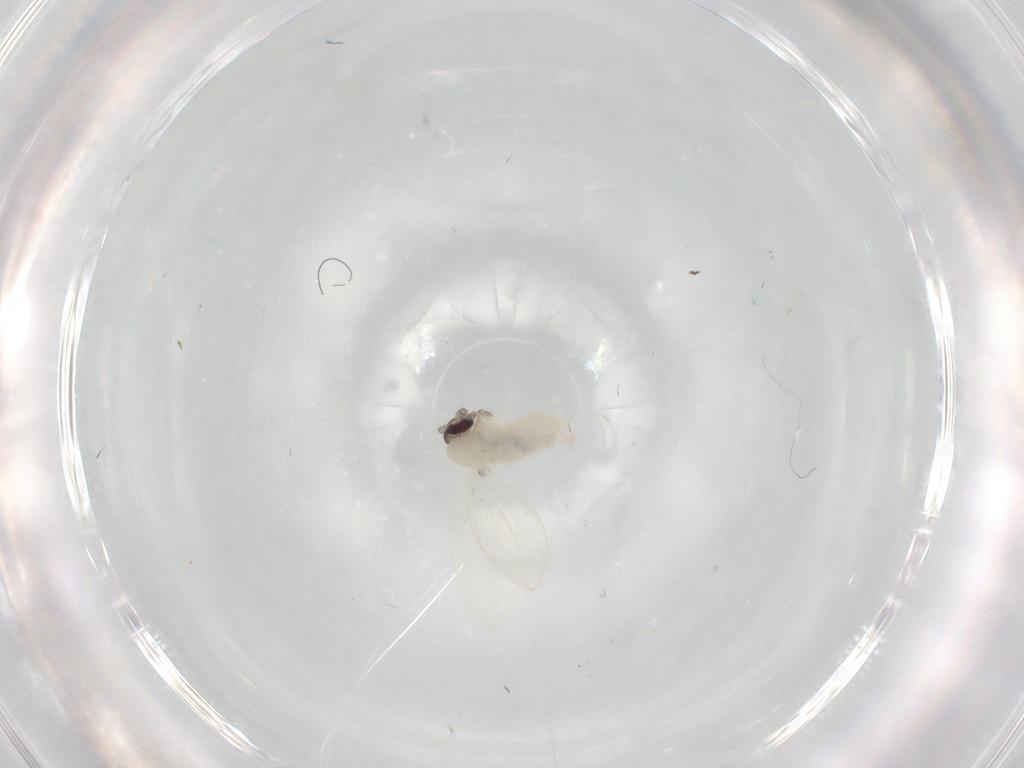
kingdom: Animalia
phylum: Arthropoda
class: Insecta
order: Diptera
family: Psychodidae
